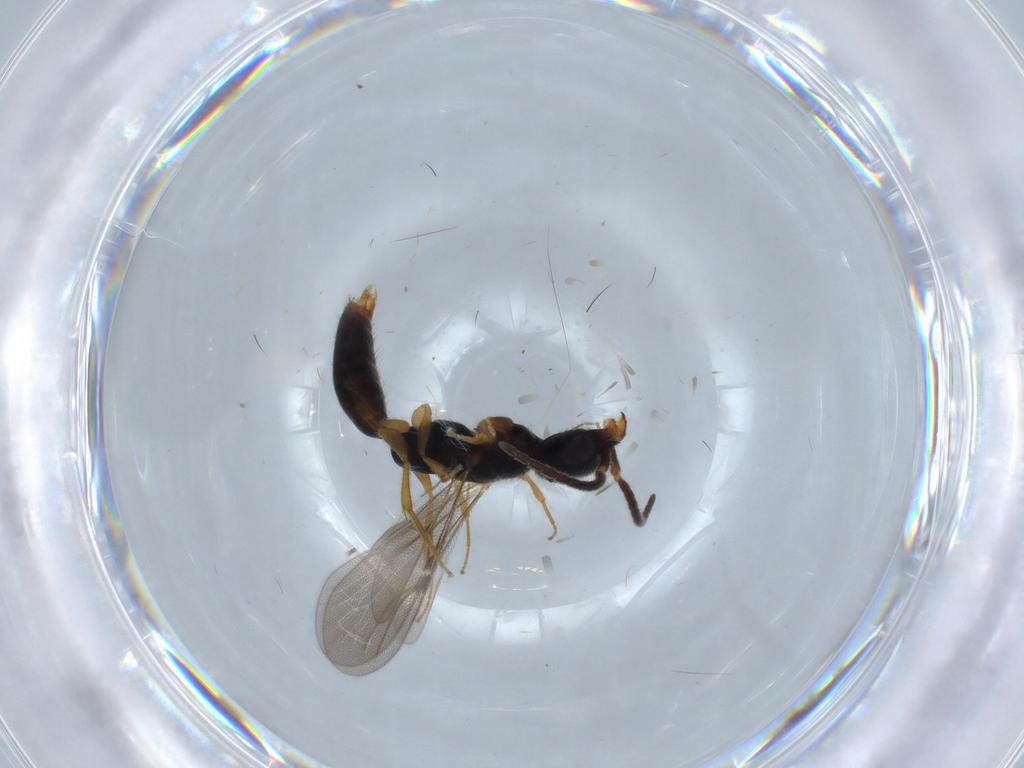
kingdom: Animalia
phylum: Arthropoda
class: Insecta
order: Hymenoptera
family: Bethylidae
